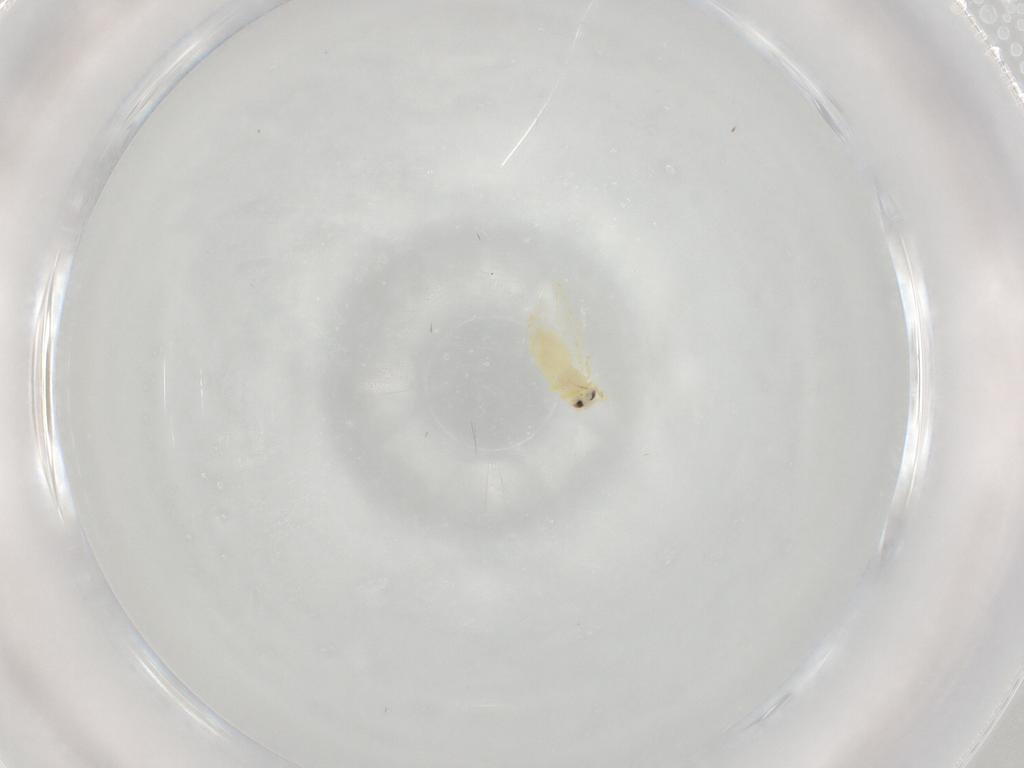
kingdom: Animalia
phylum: Arthropoda
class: Insecta
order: Hemiptera
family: Aleyrodidae
